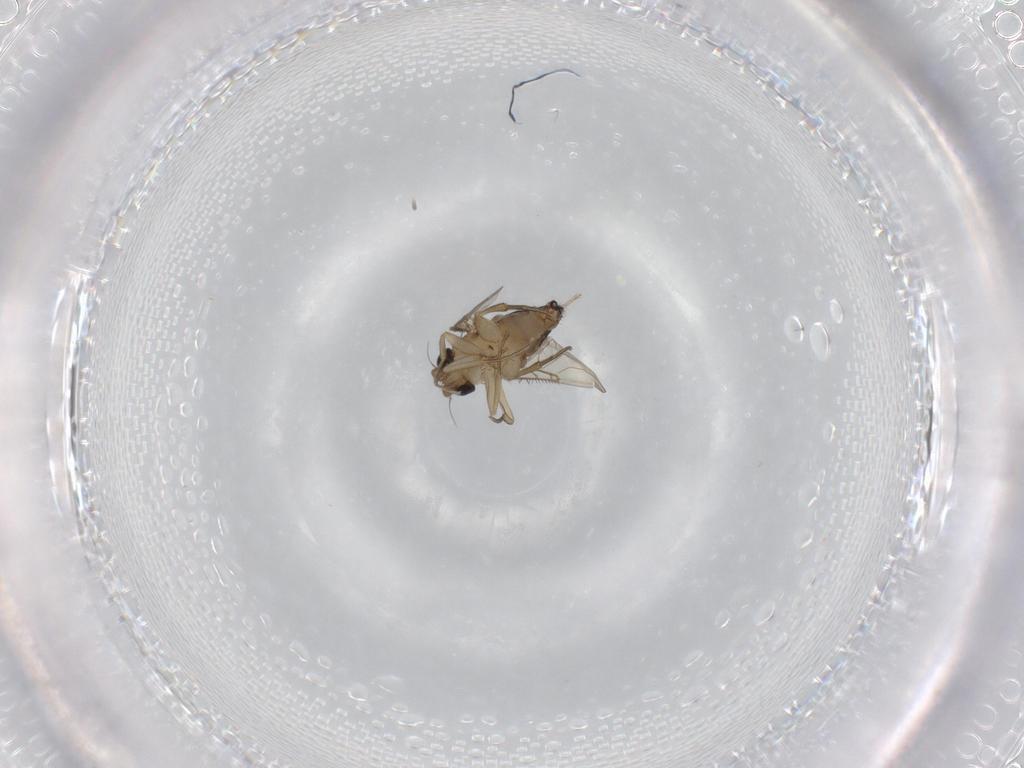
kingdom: Animalia
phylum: Arthropoda
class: Insecta
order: Diptera
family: Phoridae
